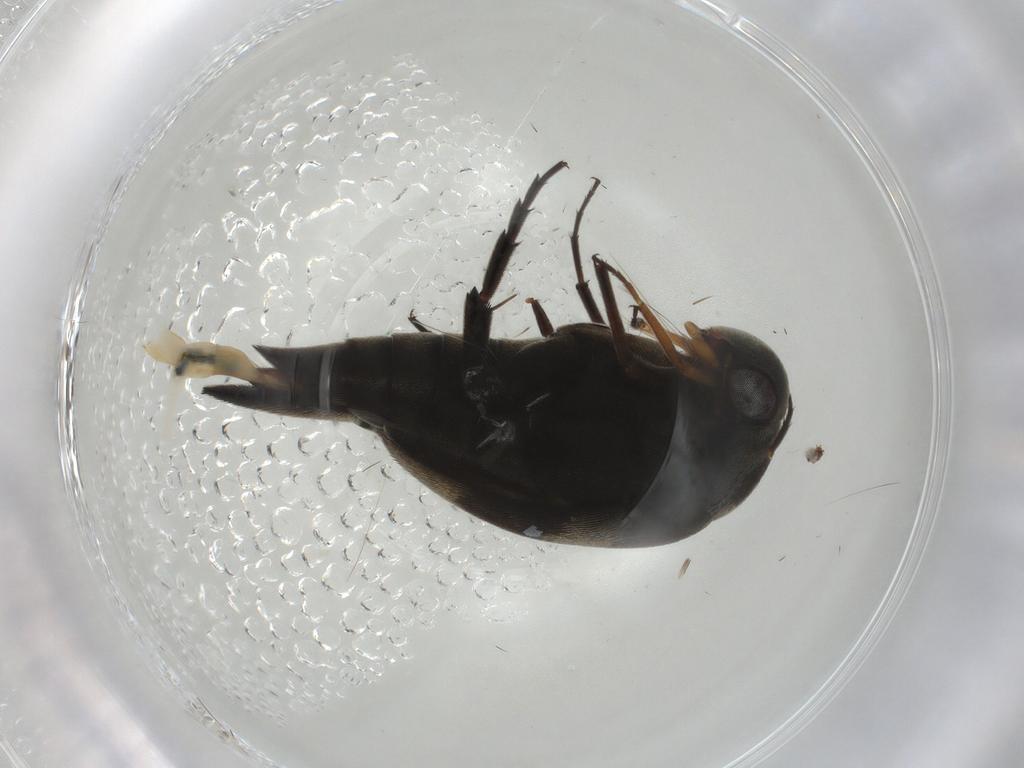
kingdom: Animalia
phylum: Arthropoda
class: Insecta
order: Coleoptera
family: Mordellidae
